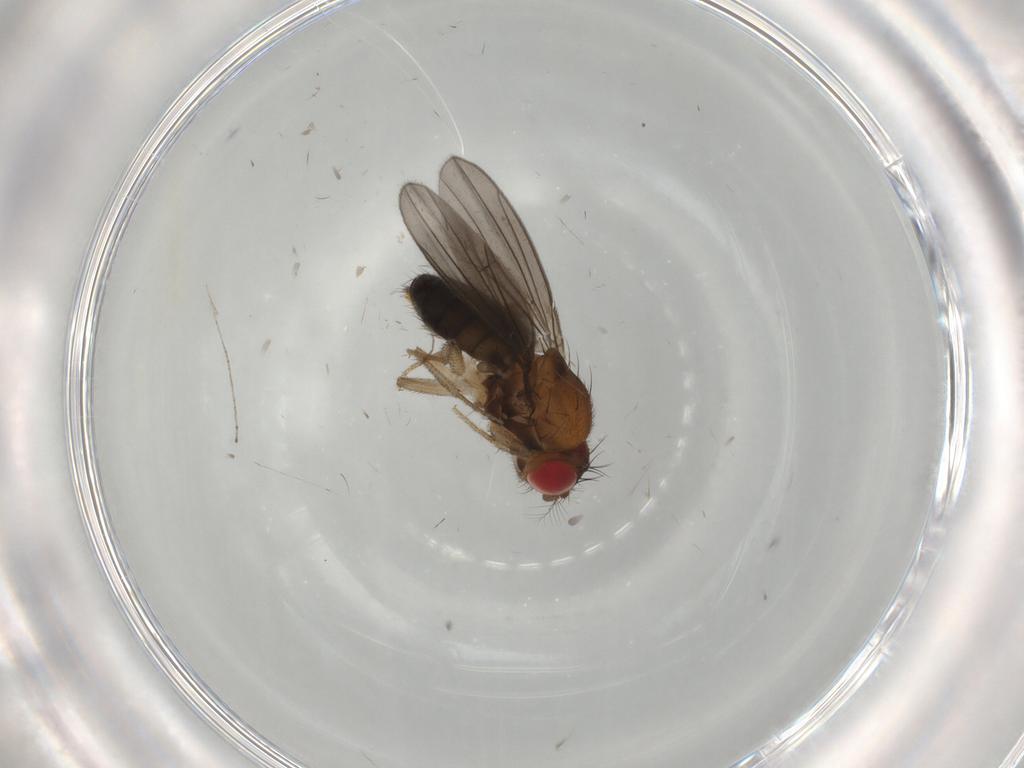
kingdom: Animalia
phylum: Arthropoda
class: Insecta
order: Diptera
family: Drosophilidae
